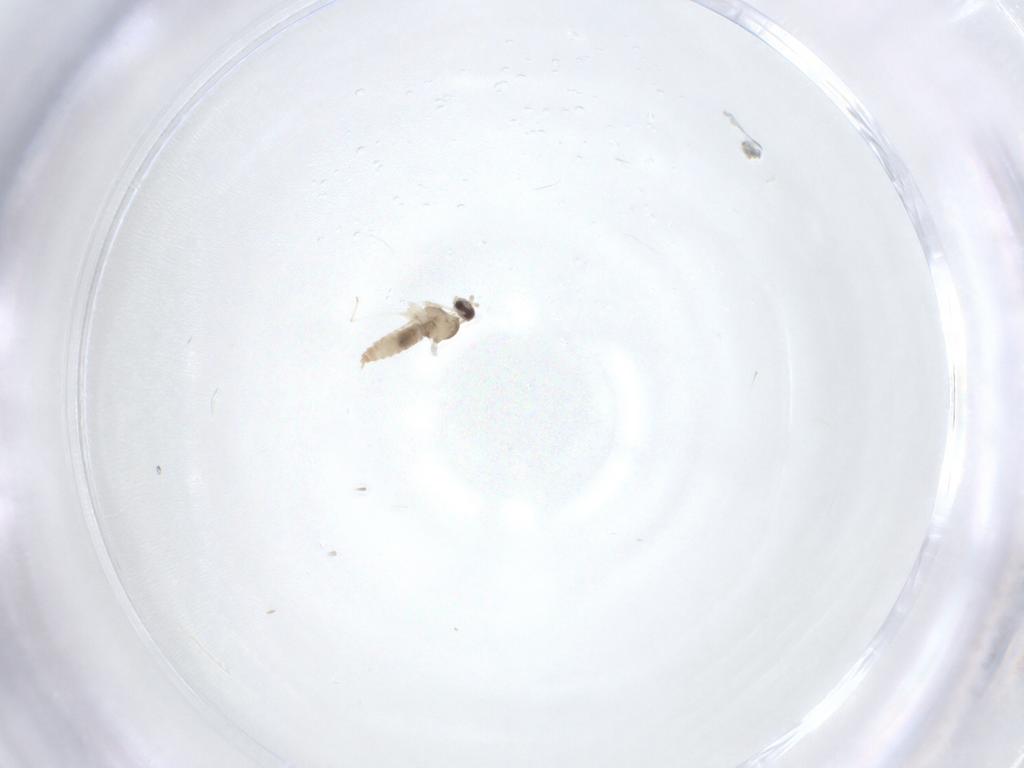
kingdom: Animalia
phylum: Arthropoda
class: Insecta
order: Diptera
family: Cecidomyiidae
